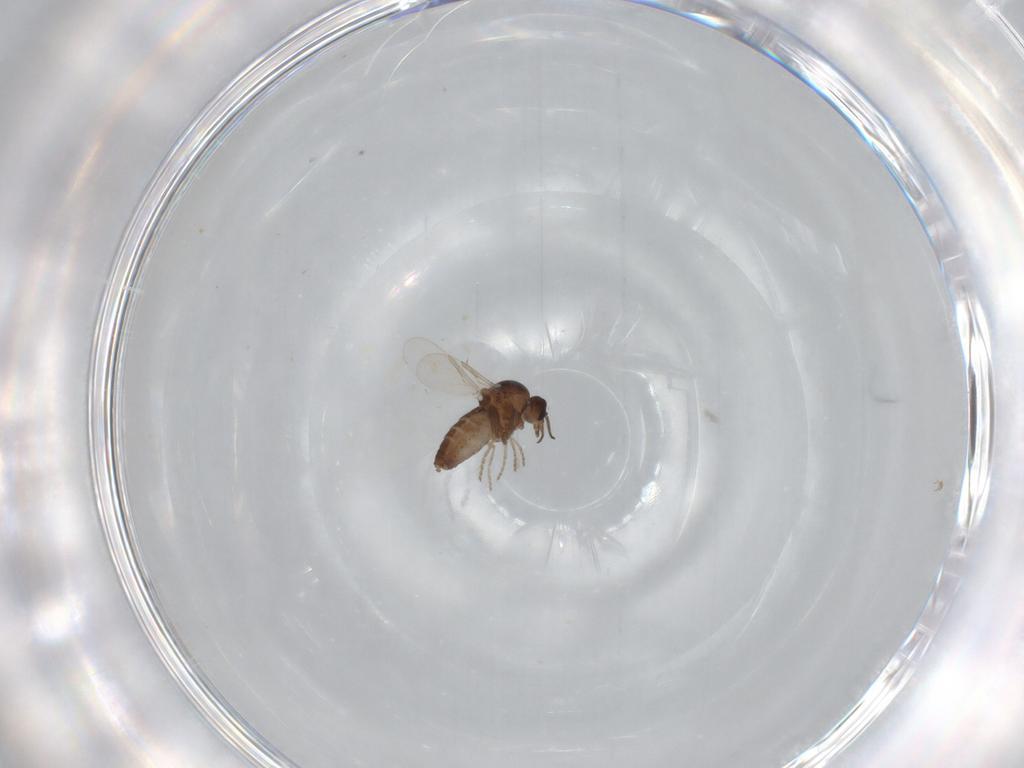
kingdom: Animalia
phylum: Arthropoda
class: Insecta
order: Diptera
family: Ceratopogonidae
